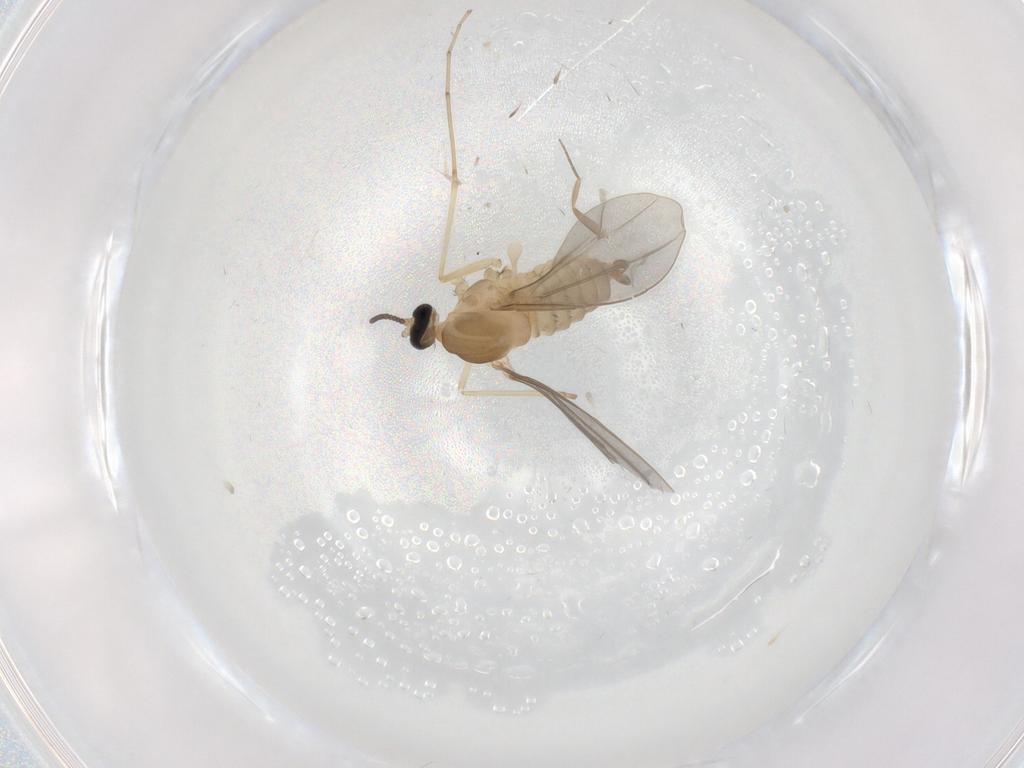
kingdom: Animalia
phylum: Arthropoda
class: Insecta
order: Diptera
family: Cecidomyiidae
